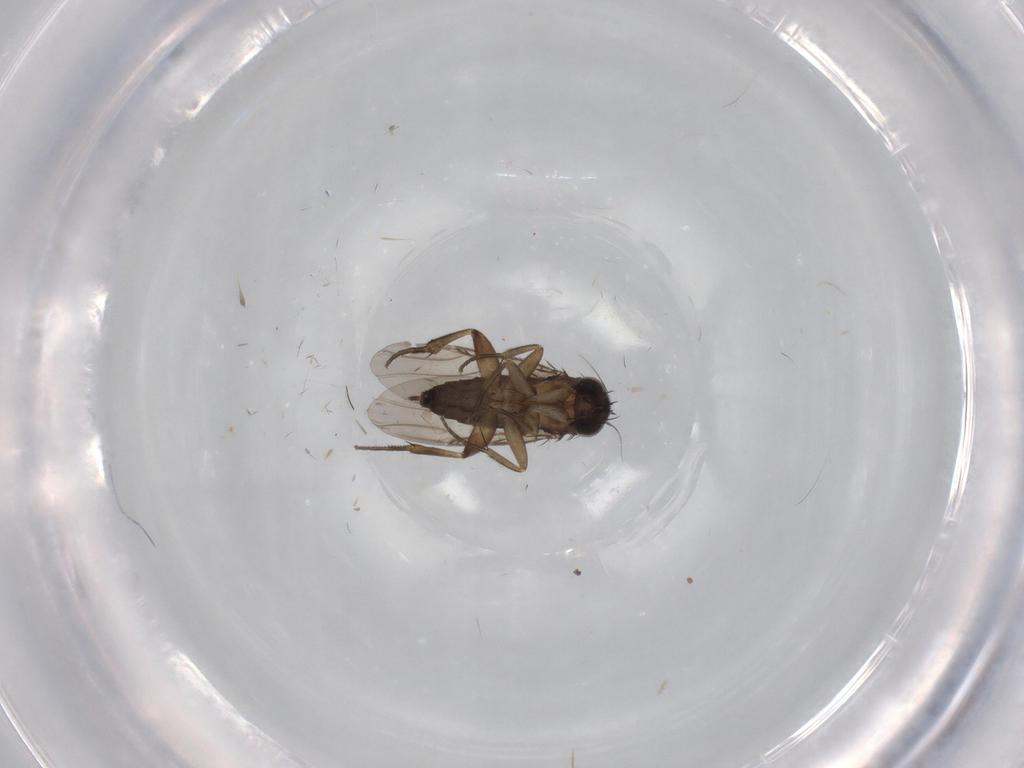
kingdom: Animalia
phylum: Arthropoda
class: Insecta
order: Diptera
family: Phoridae
